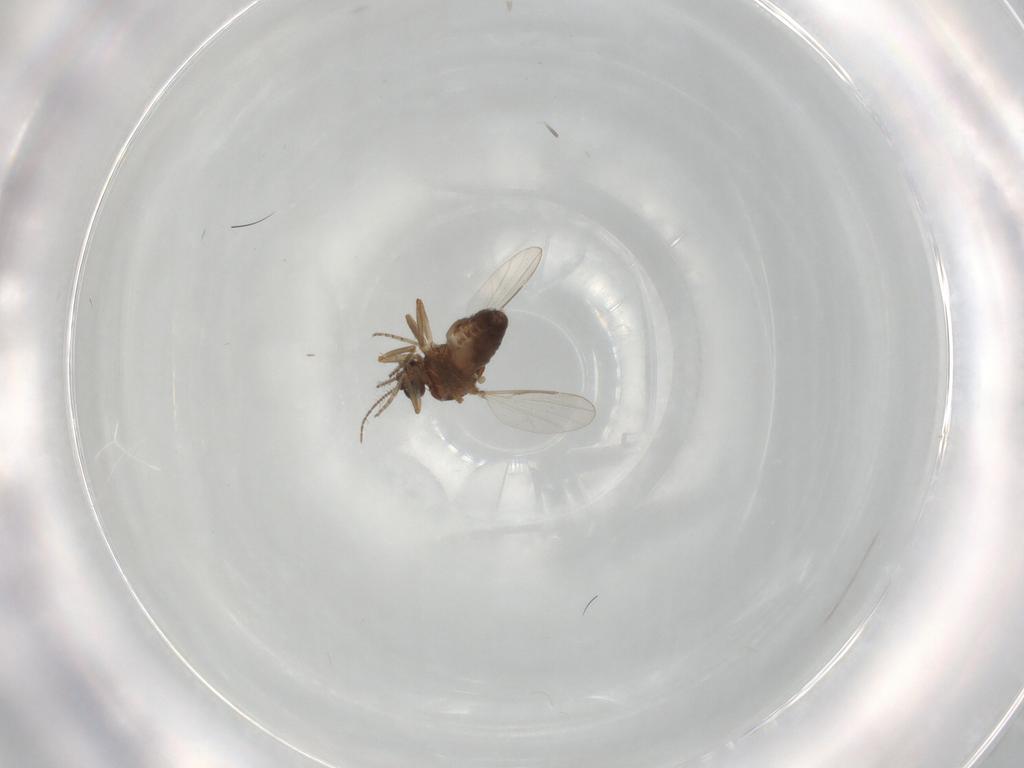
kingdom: Animalia
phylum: Arthropoda
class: Insecta
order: Diptera
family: Ceratopogonidae
